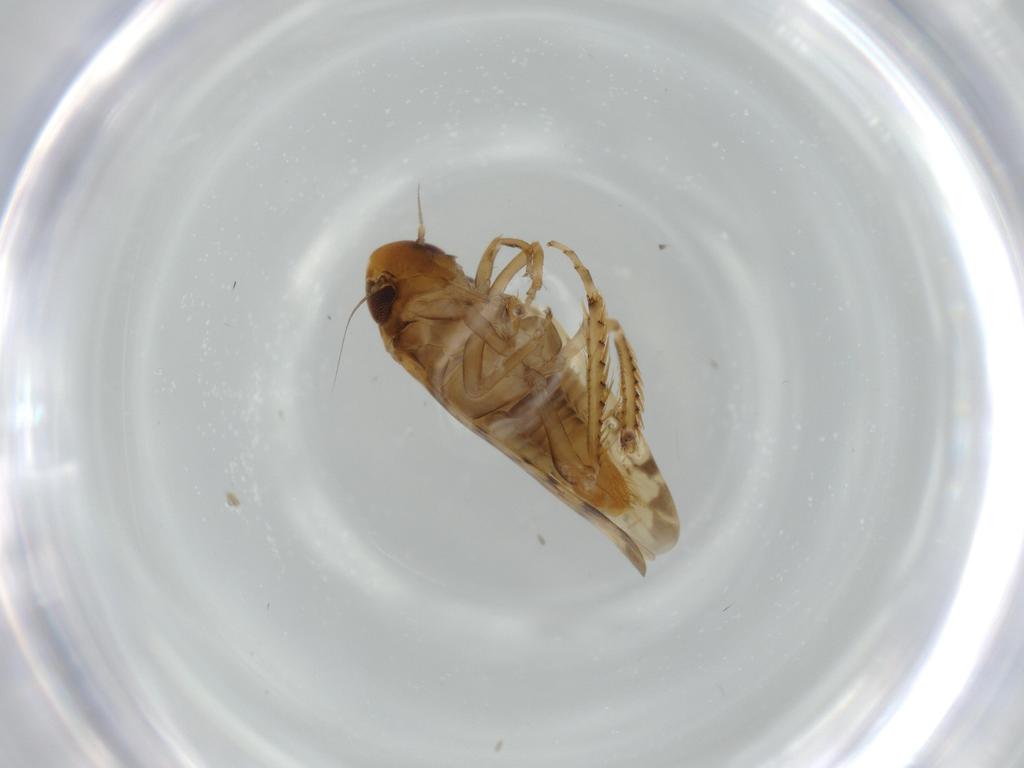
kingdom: Animalia
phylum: Arthropoda
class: Insecta
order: Hemiptera
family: Cicadellidae
